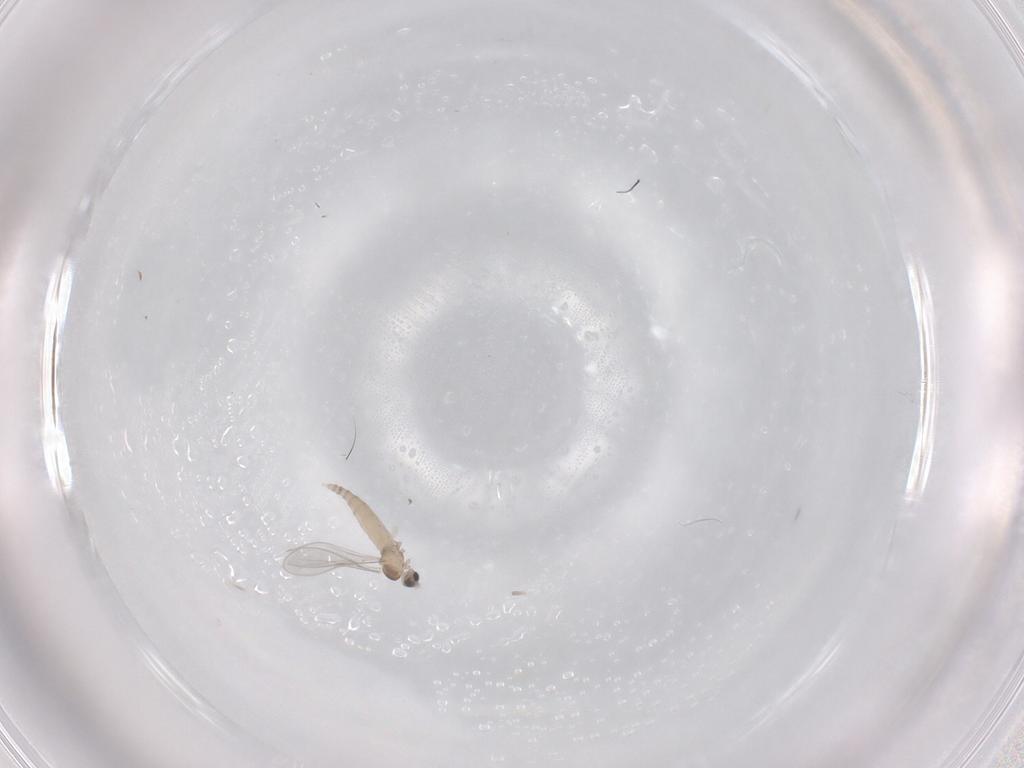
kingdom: Animalia
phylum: Arthropoda
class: Insecta
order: Diptera
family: Cecidomyiidae
